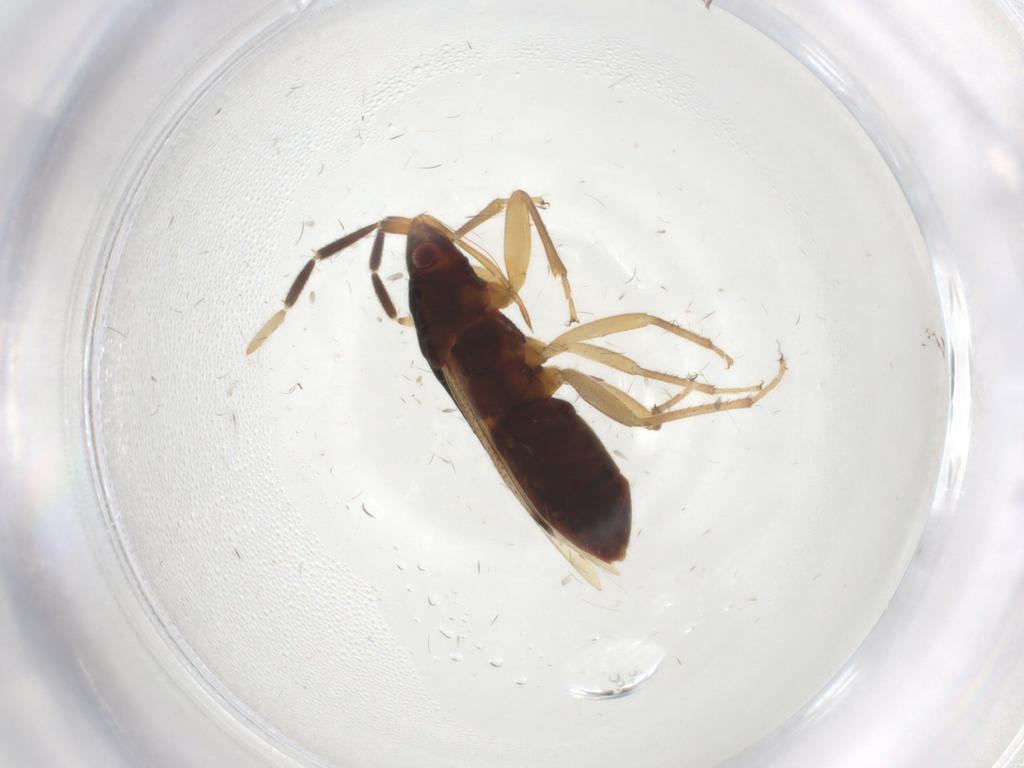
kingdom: Animalia
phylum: Arthropoda
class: Insecta
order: Hemiptera
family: Rhyparochromidae
